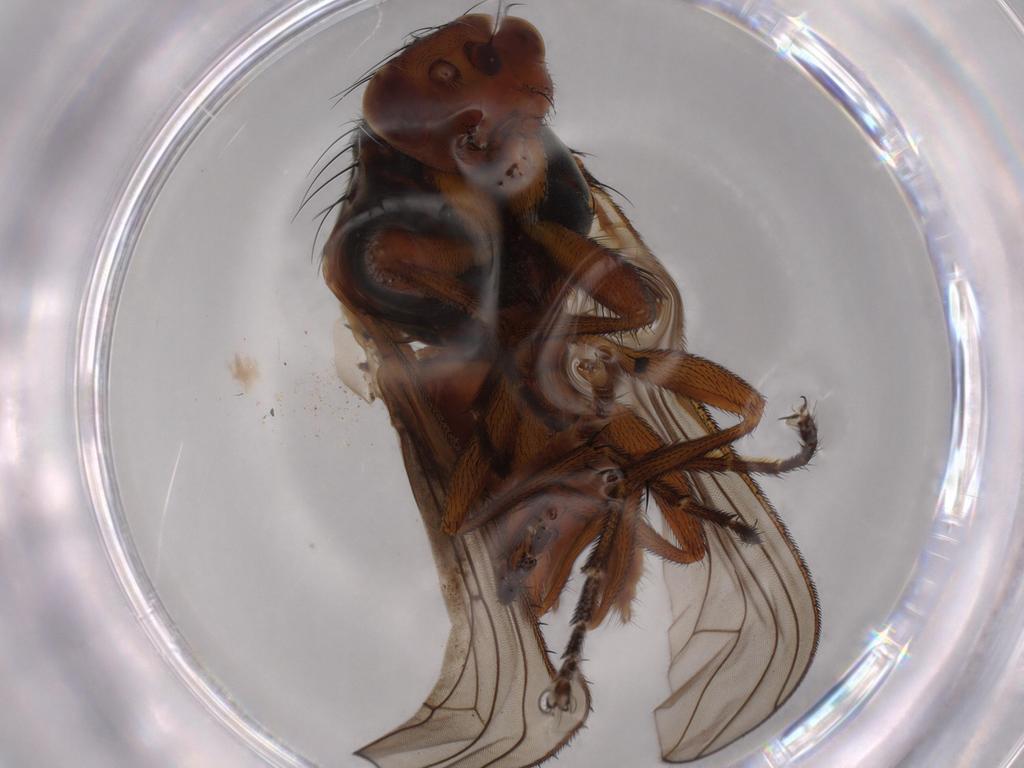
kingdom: Animalia
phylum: Arthropoda
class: Insecta
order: Diptera
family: Heleomyzidae
